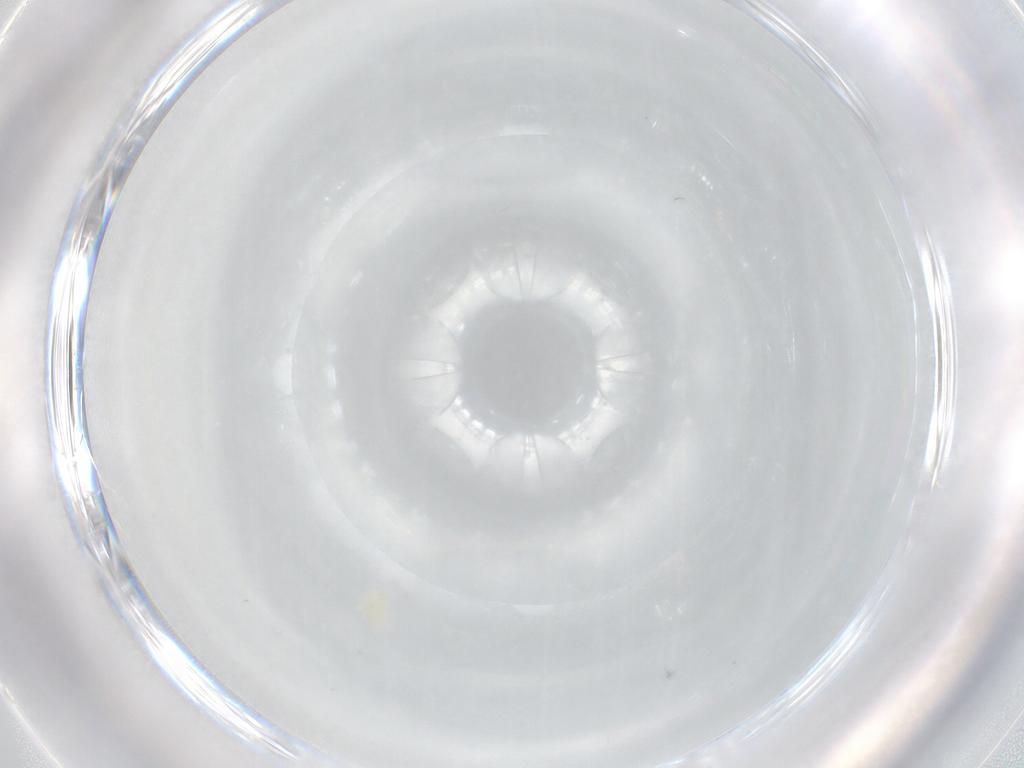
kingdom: Animalia
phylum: Arthropoda
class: Arachnida
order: Trombidiformes
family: Eupodidae
